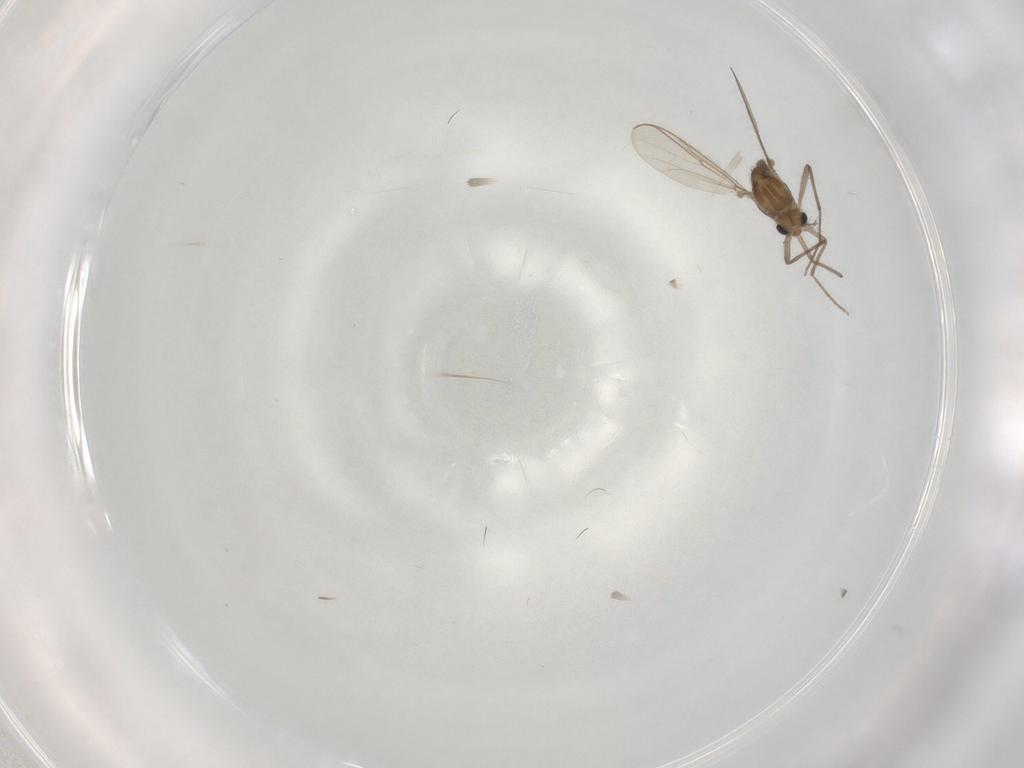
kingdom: Animalia
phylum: Arthropoda
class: Insecta
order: Diptera
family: Chironomidae
